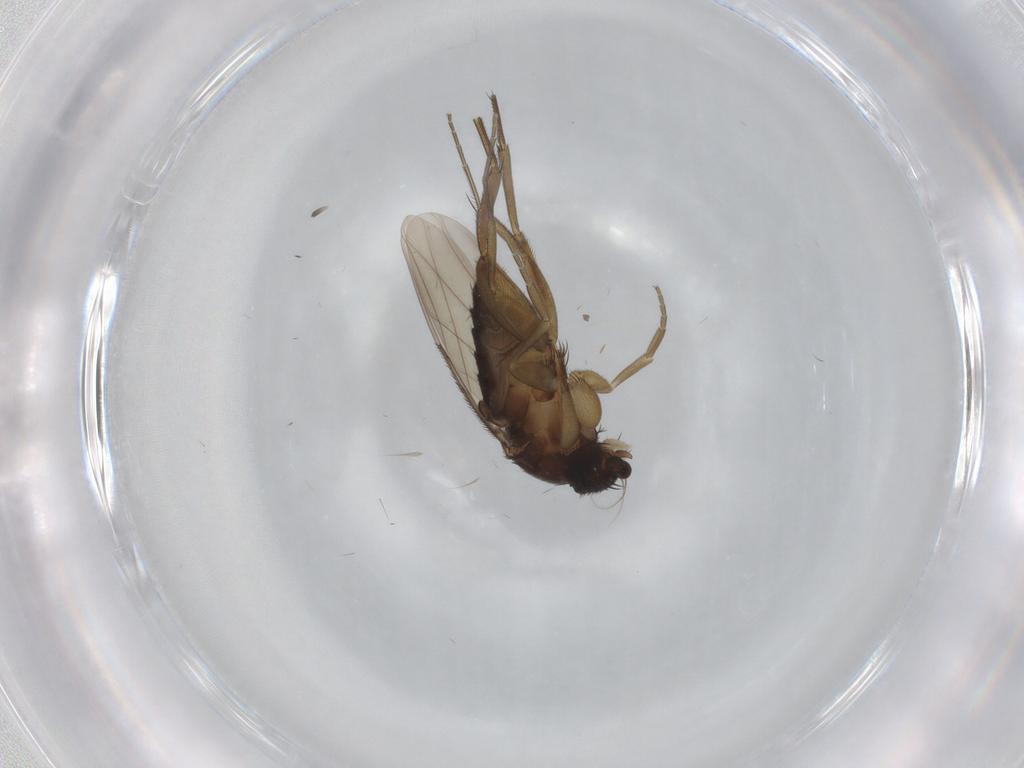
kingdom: Animalia
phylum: Arthropoda
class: Insecta
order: Diptera
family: Phoridae
